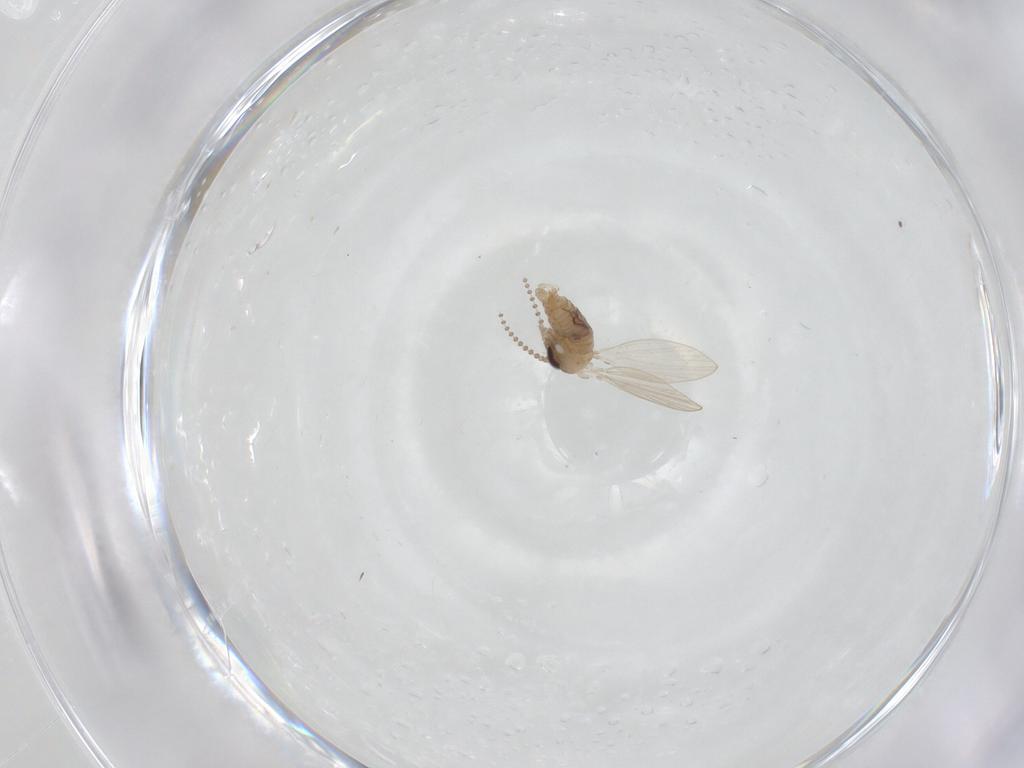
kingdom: Animalia
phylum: Arthropoda
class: Insecta
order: Diptera
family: Psychodidae
